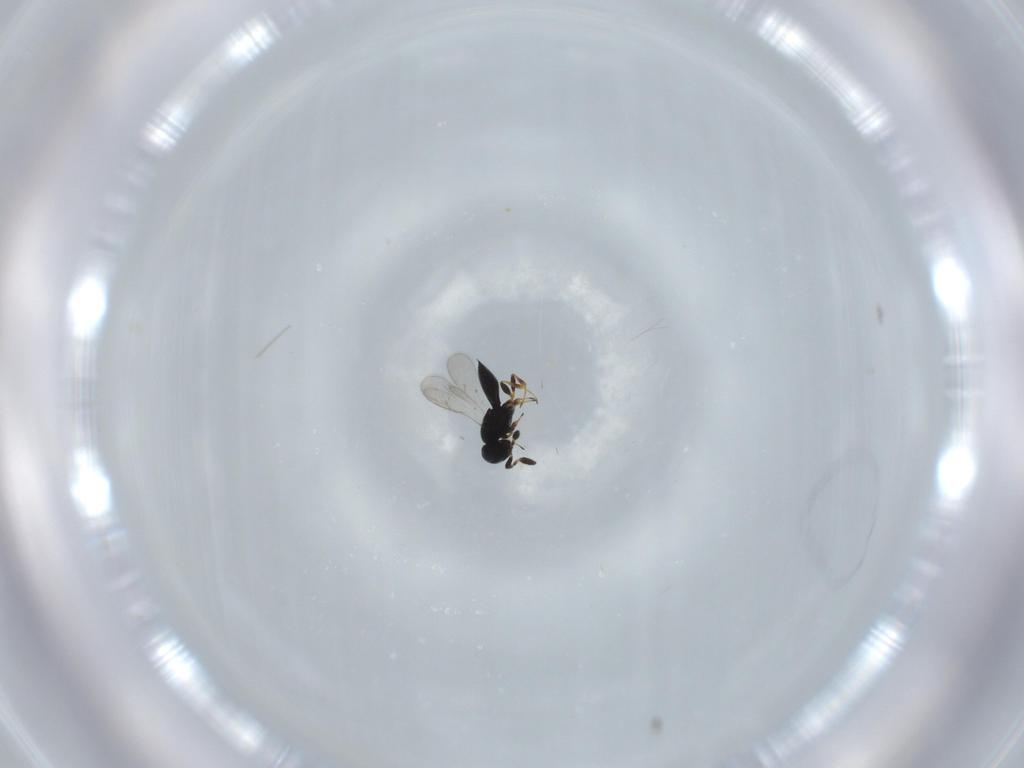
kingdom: Animalia
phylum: Arthropoda
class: Insecta
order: Hymenoptera
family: Scelionidae
